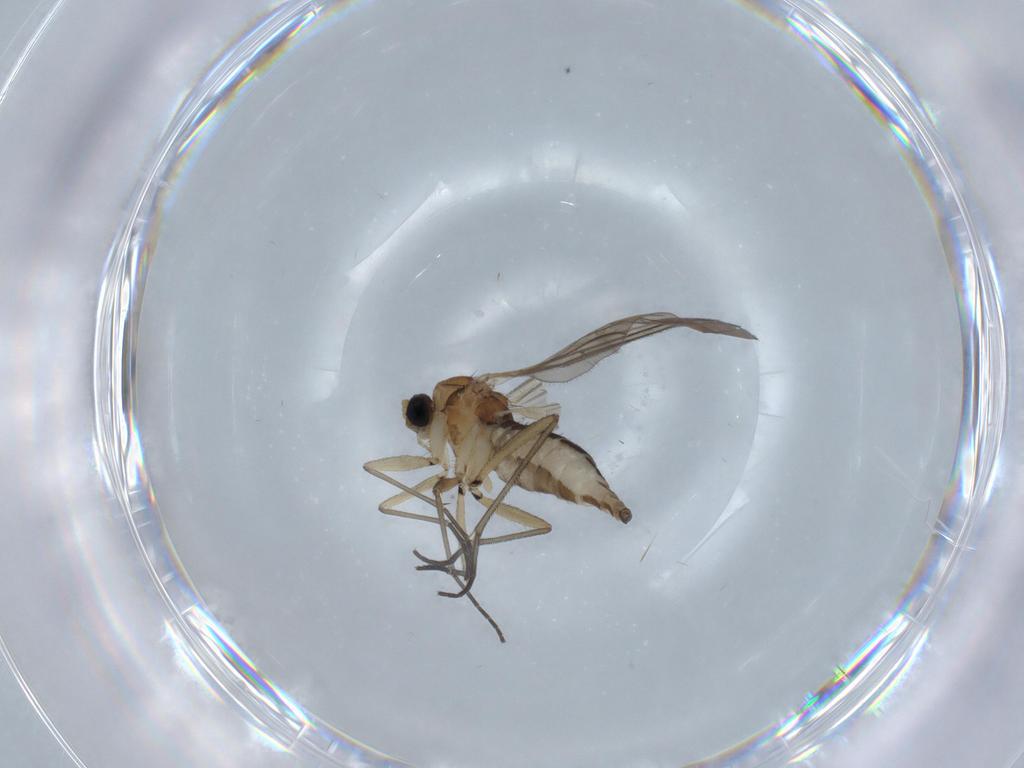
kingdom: Animalia
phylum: Arthropoda
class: Insecta
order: Diptera
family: Sciaridae
